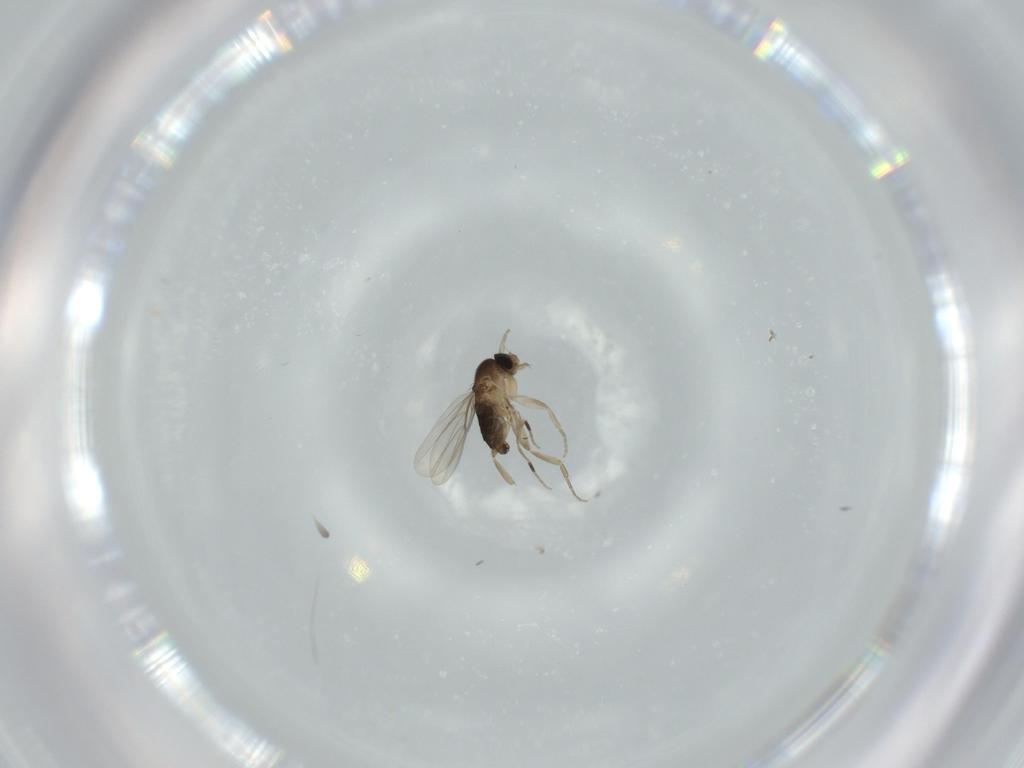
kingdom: Animalia
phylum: Arthropoda
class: Insecta
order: Diptera
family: Phoridae
